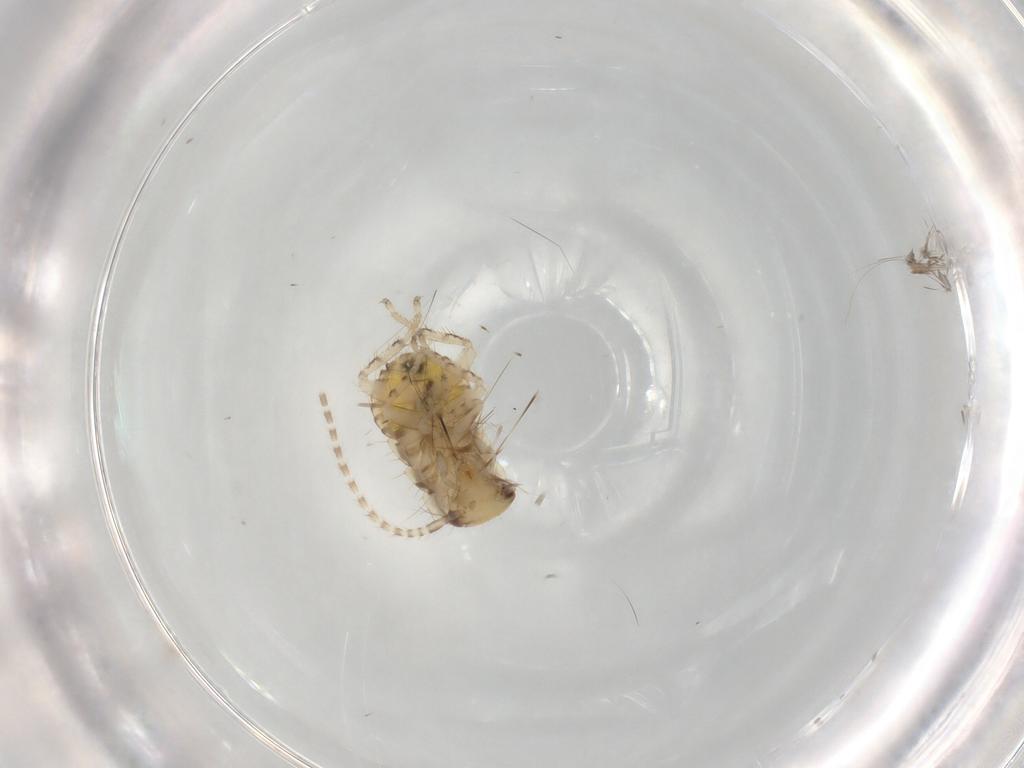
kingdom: Animalia
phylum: Arthropoda
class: Insecta
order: Blattodea
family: Ectobiidae
